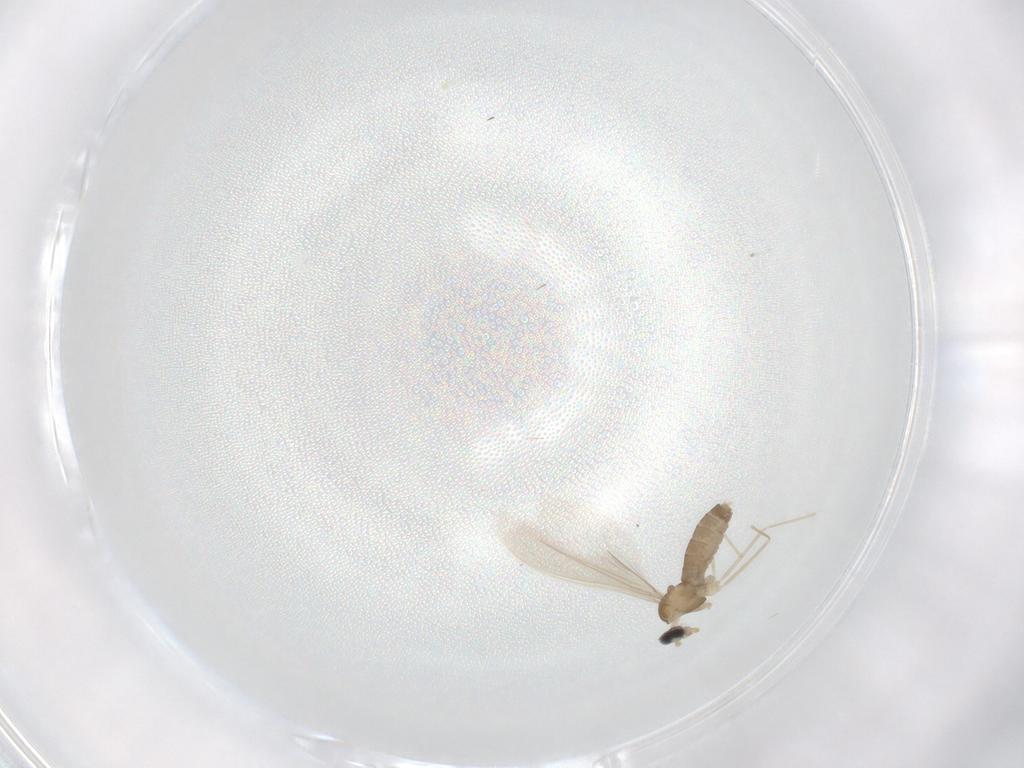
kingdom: Animalia
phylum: Arthropoda
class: Insecta
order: Diptera
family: Cecidomyiidae
